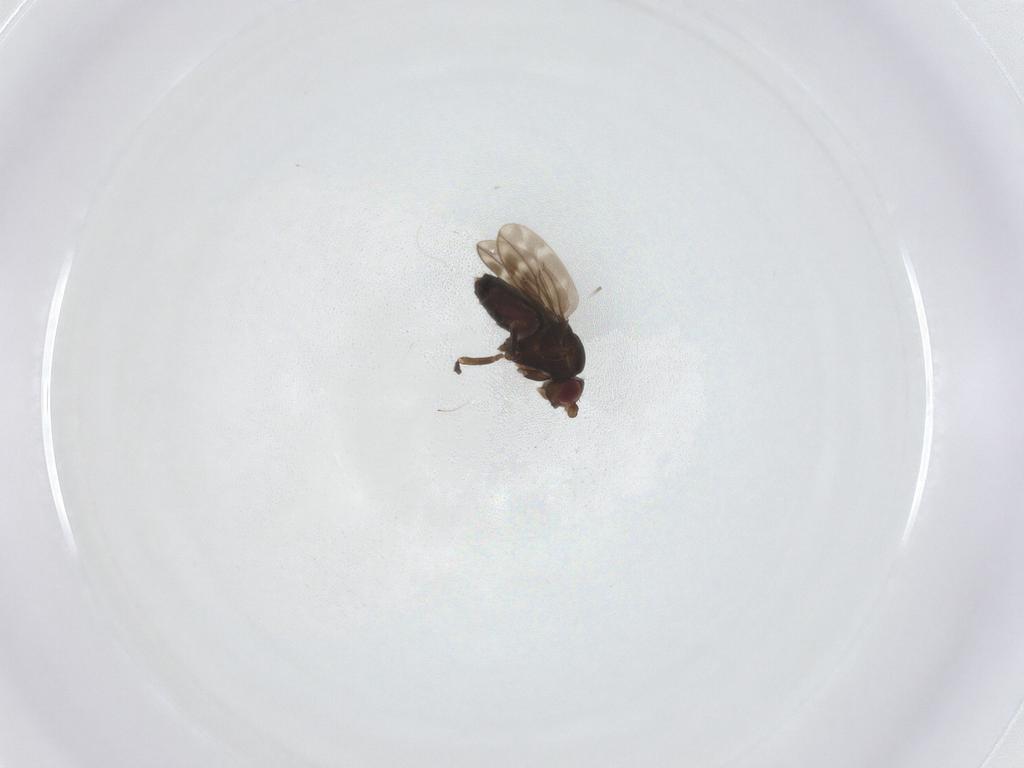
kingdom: Animalia
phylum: Arthropoda
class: Insecta
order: Diptera
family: Sphaeroceridae
